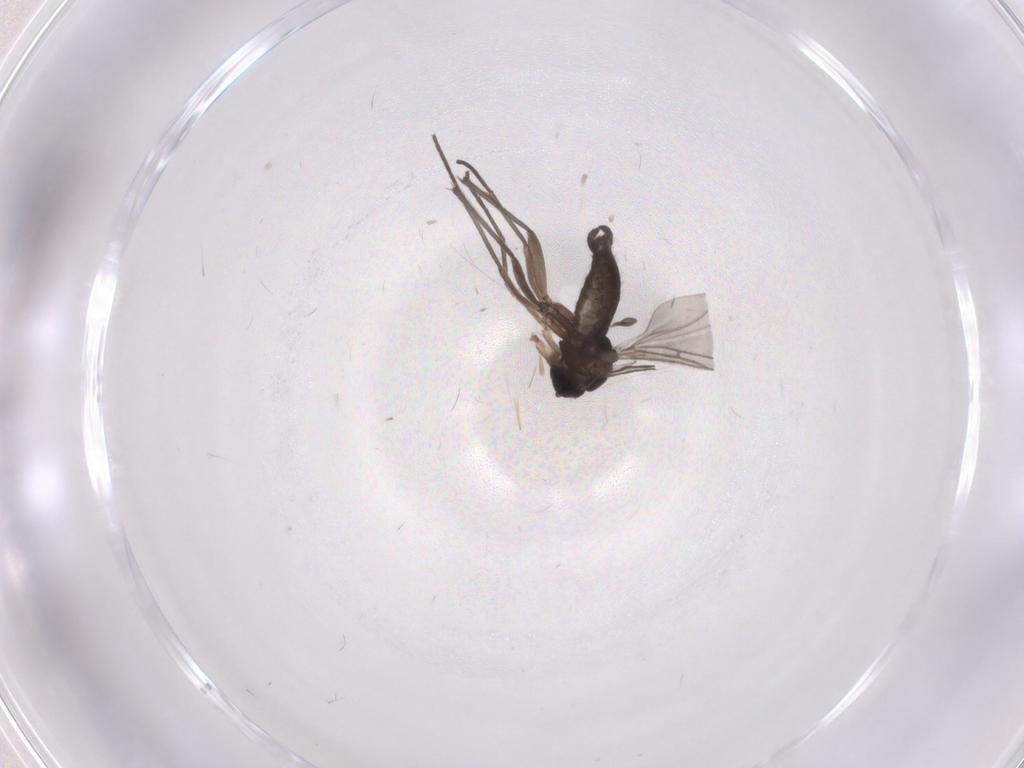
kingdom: Animalia
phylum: Arthropoda
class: Insecta
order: Diptera
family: Sciaridae
